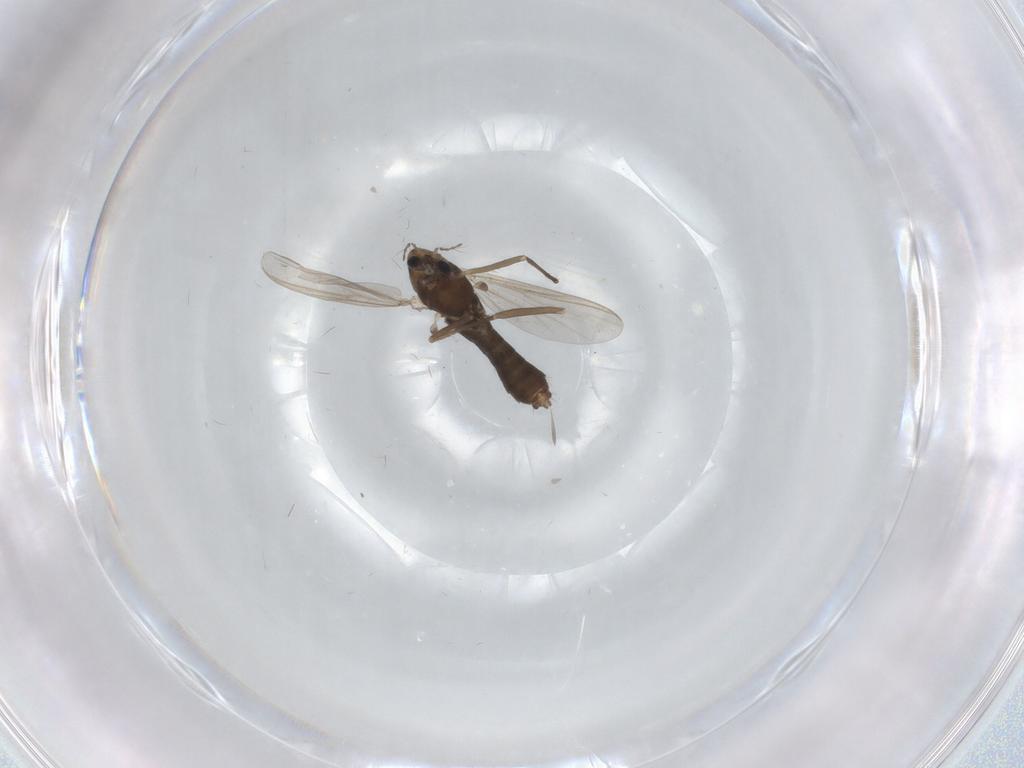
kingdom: Animalia
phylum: Arthropoda
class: Insecta
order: Diptera
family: Chironomidae
